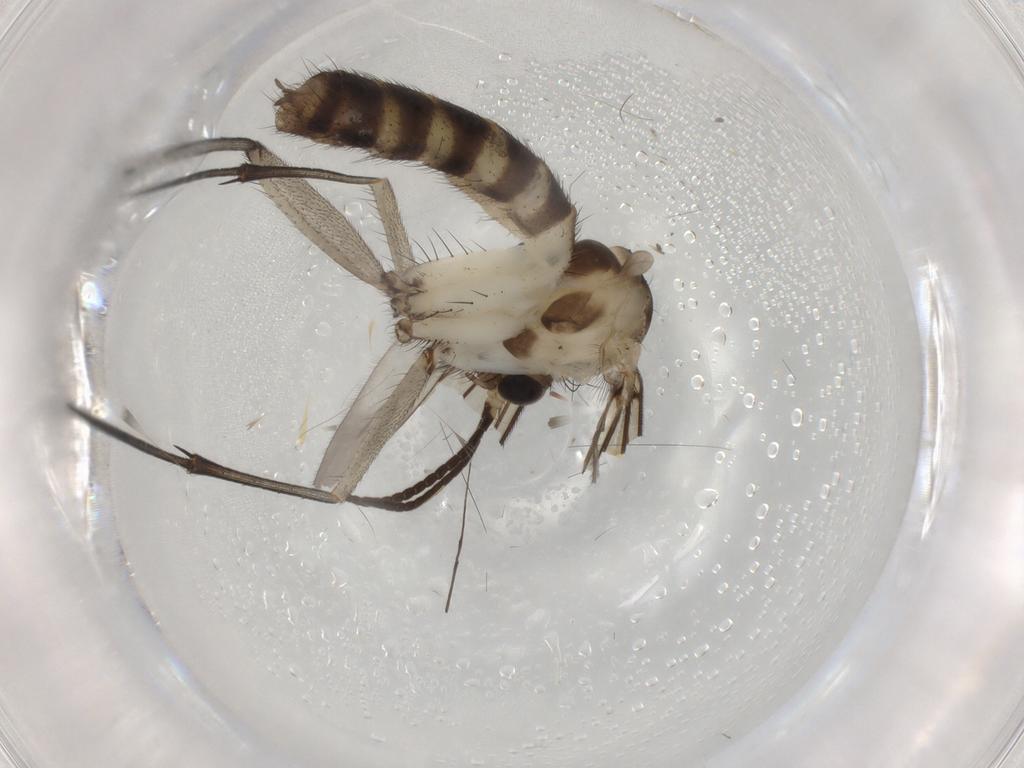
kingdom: Animalia
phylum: Arthropoda
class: Insecta
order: Diptera
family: Mycetophilidae
